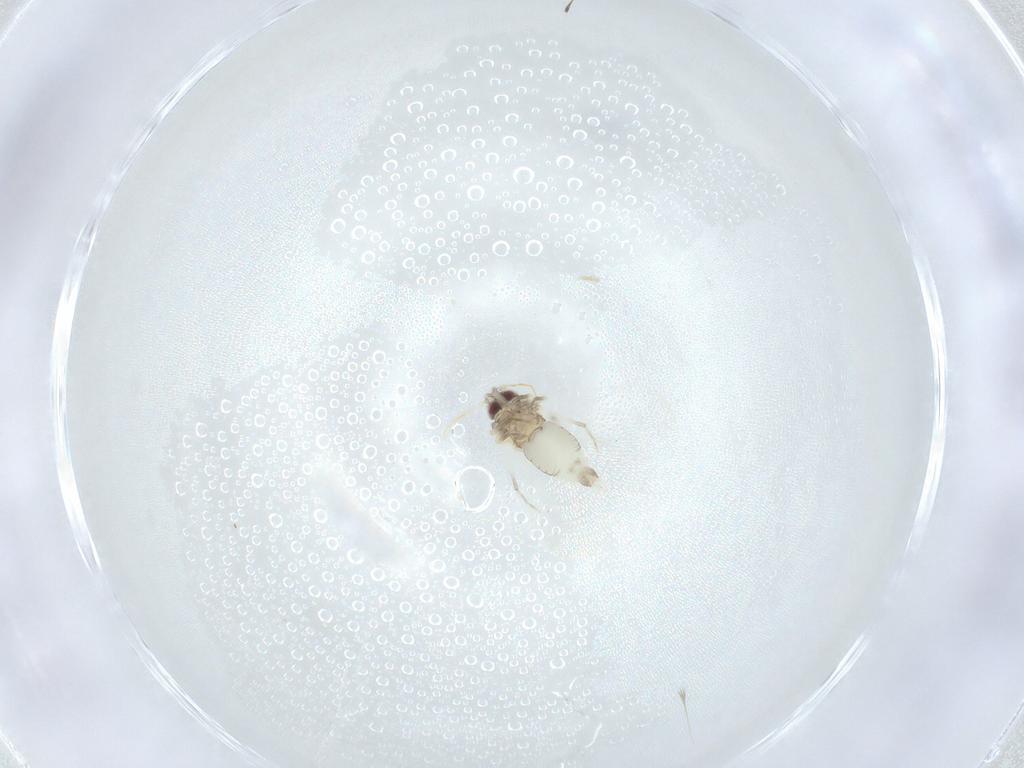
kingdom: Animalia
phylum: Arthropoda
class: Insecta
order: Hemiptera
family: Aleyrodidae
